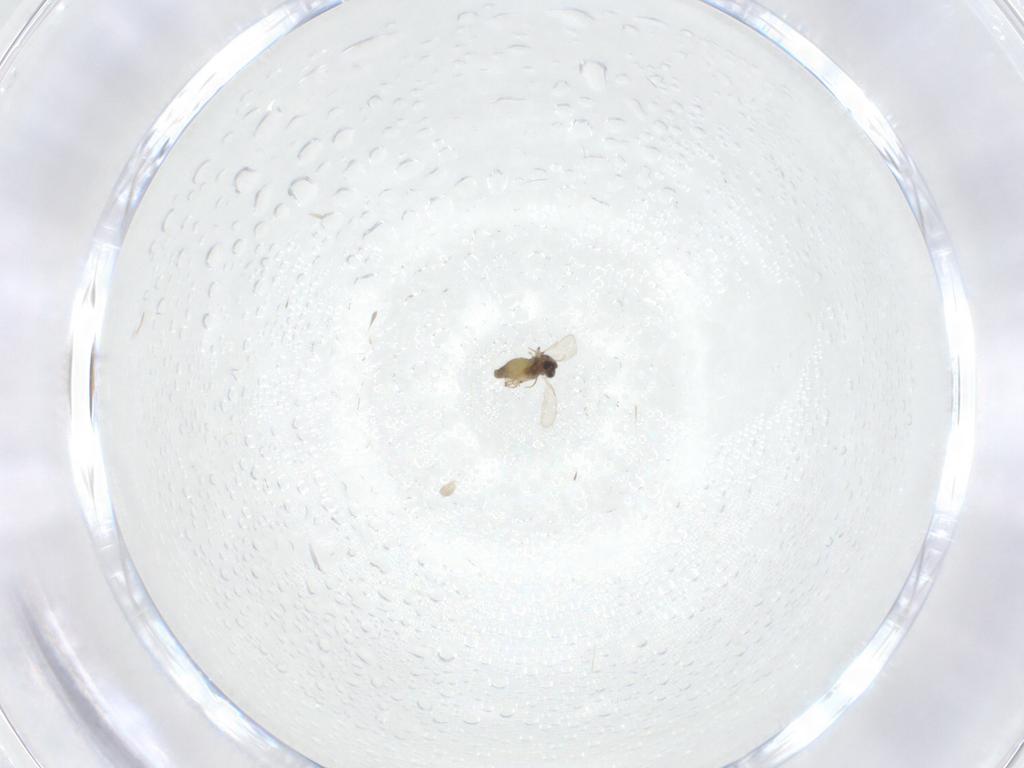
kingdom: Animalia
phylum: Arthropoda
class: Insecta
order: Diptera
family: Chironomidae
